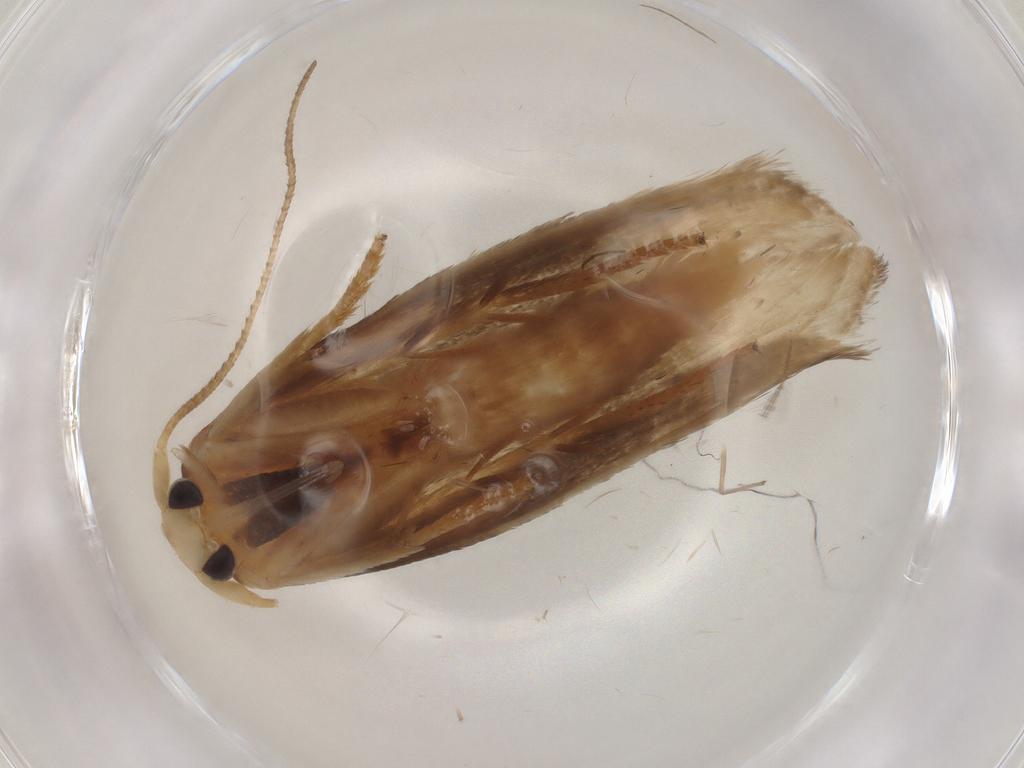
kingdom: Animalia
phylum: Arthropoda
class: Insecta
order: Lepidoptera
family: Geometridae
